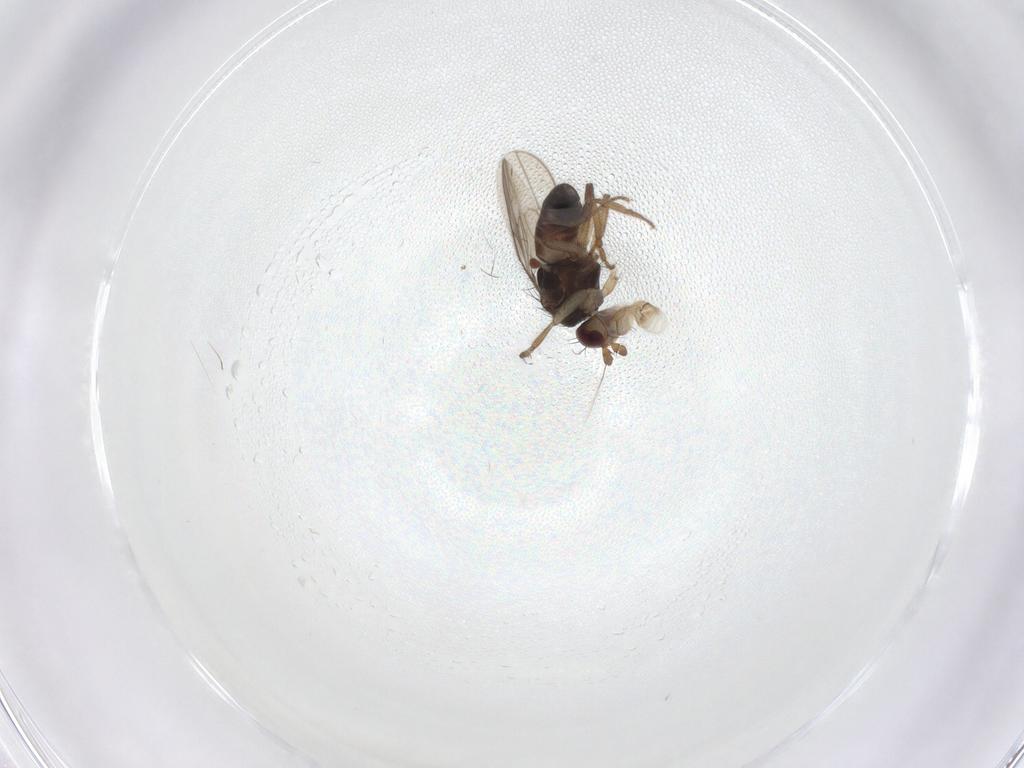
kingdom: Animalia
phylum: Arthropoda
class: Insecta
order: Diptera
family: Sphaeroceridae
